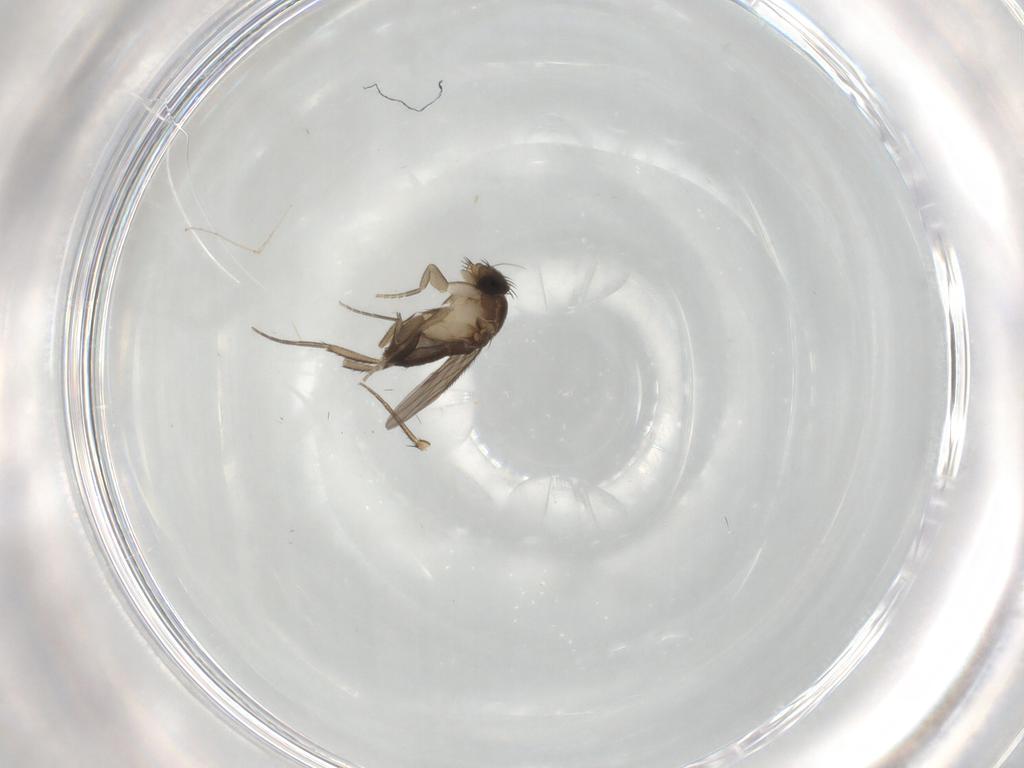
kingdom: Animalia
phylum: Arthropoda
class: Insecta
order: Diptera
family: Phoridae
